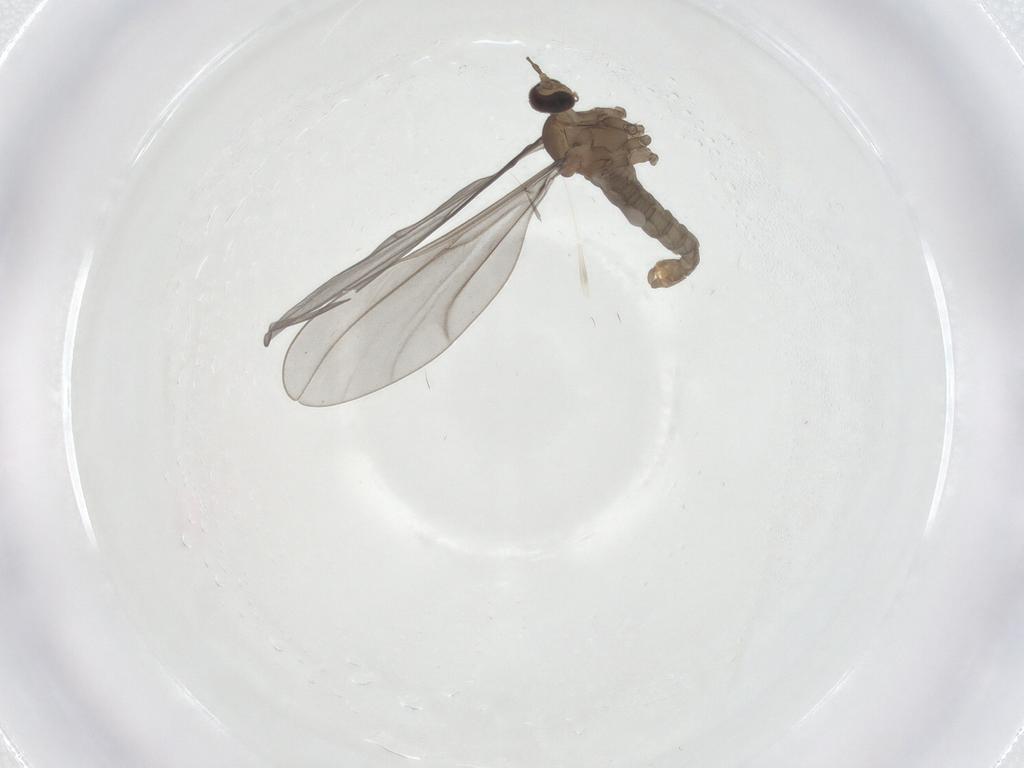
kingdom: Animalia
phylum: Arthropoda
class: Insecta
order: Diptera
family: Cecidomyiidae
